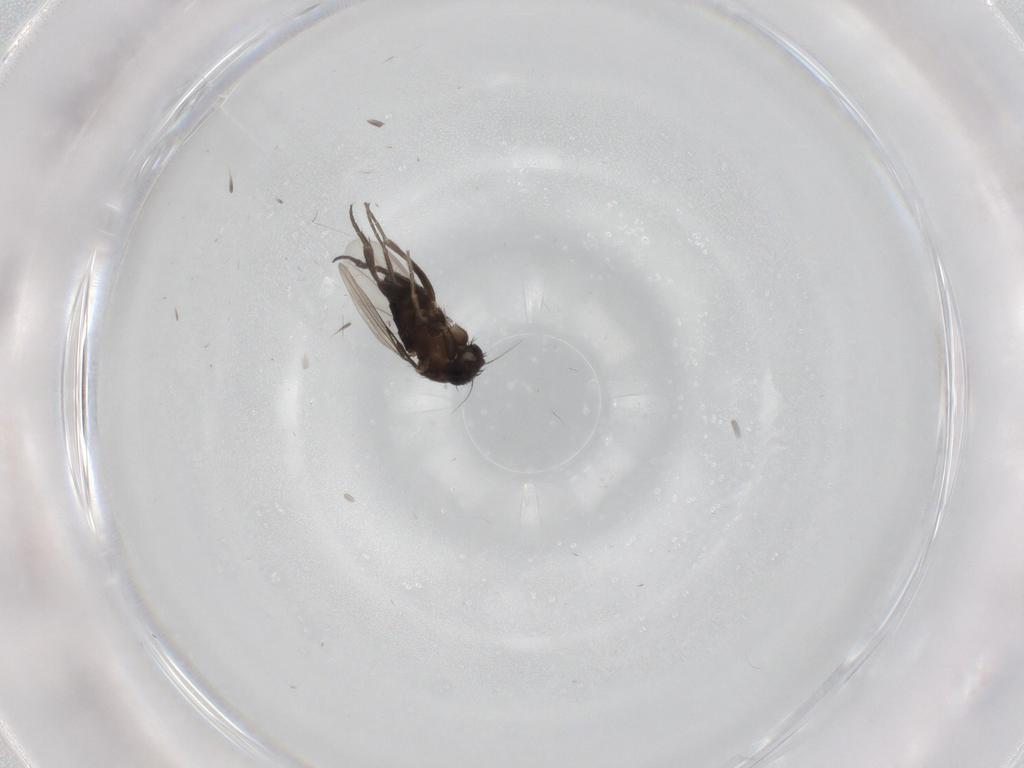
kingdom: Animalia
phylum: Arthropoda
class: Insecta
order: Diptera
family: Phoridae
